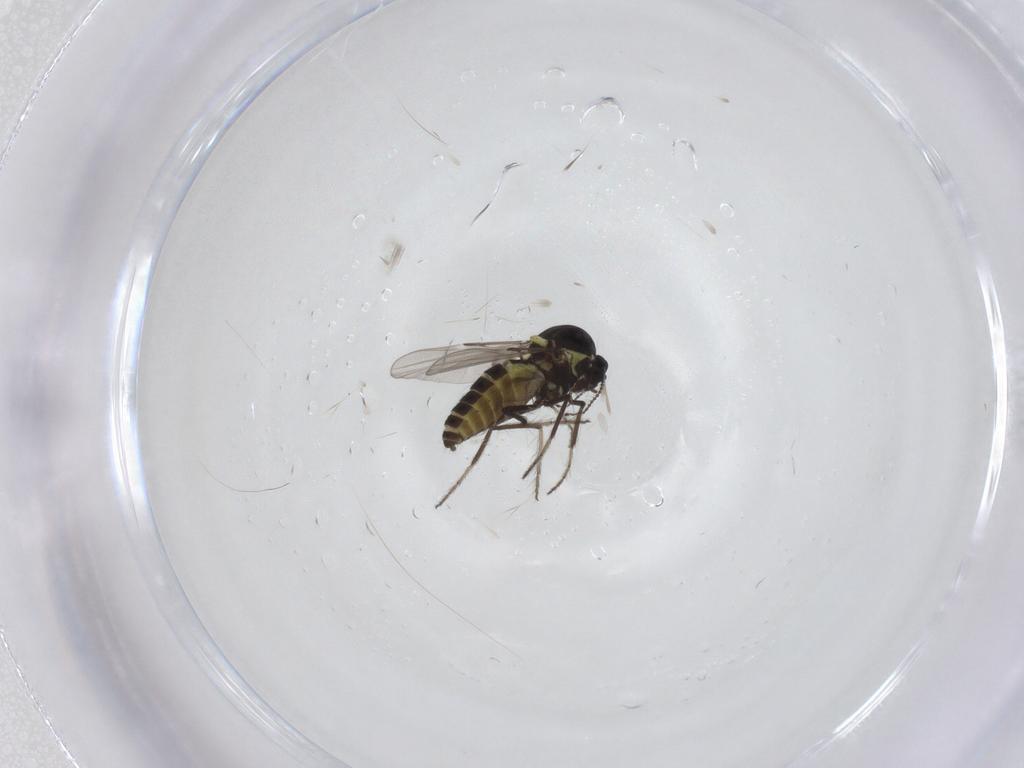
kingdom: Animalia
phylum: Arthropoda
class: Insecta
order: Diptera
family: Ceratopogonidae
